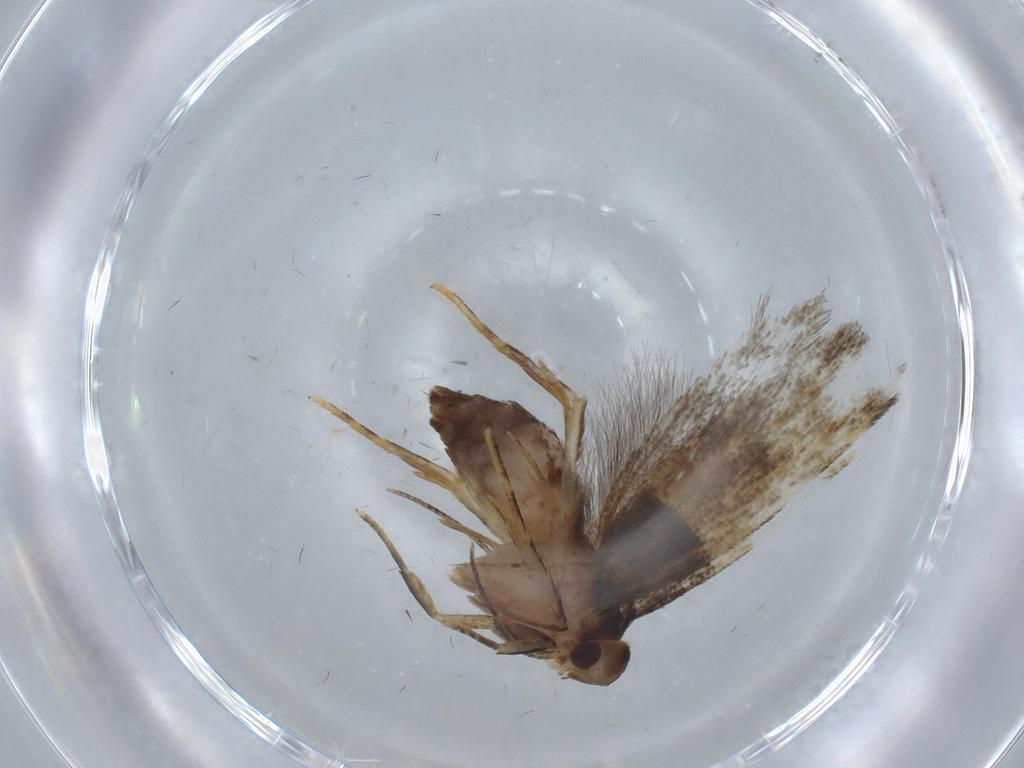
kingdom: Animalia
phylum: Arthropoda
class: Insecta
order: Lepidoptera
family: Cosmopterigidae
